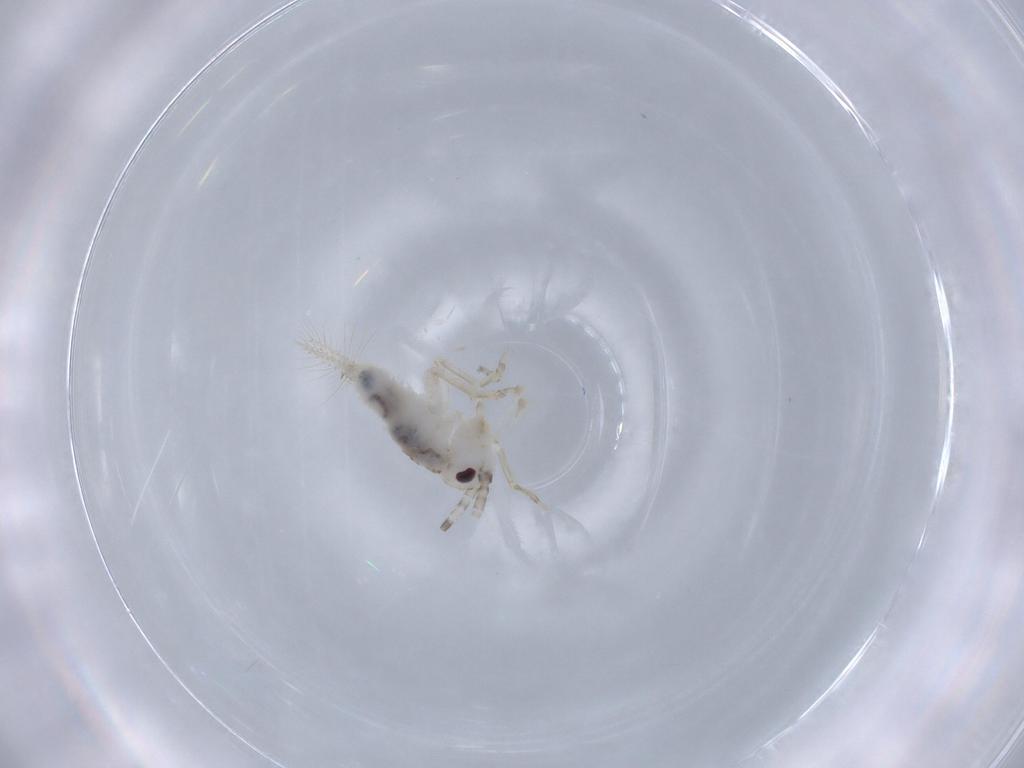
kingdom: Animalia
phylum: Arthropoda
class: Insecta
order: Orthoptera
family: Trigonidiidae
